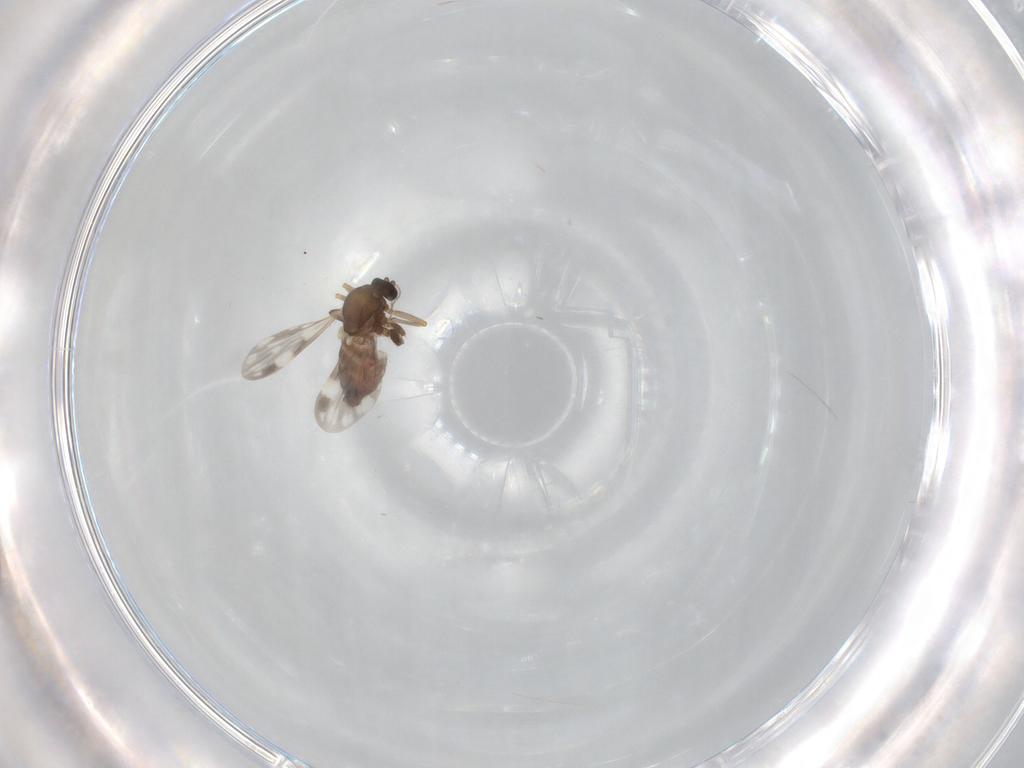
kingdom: Animalia
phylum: Arthropoda
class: Insecta
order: Diptera
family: Ceratopogonidae
